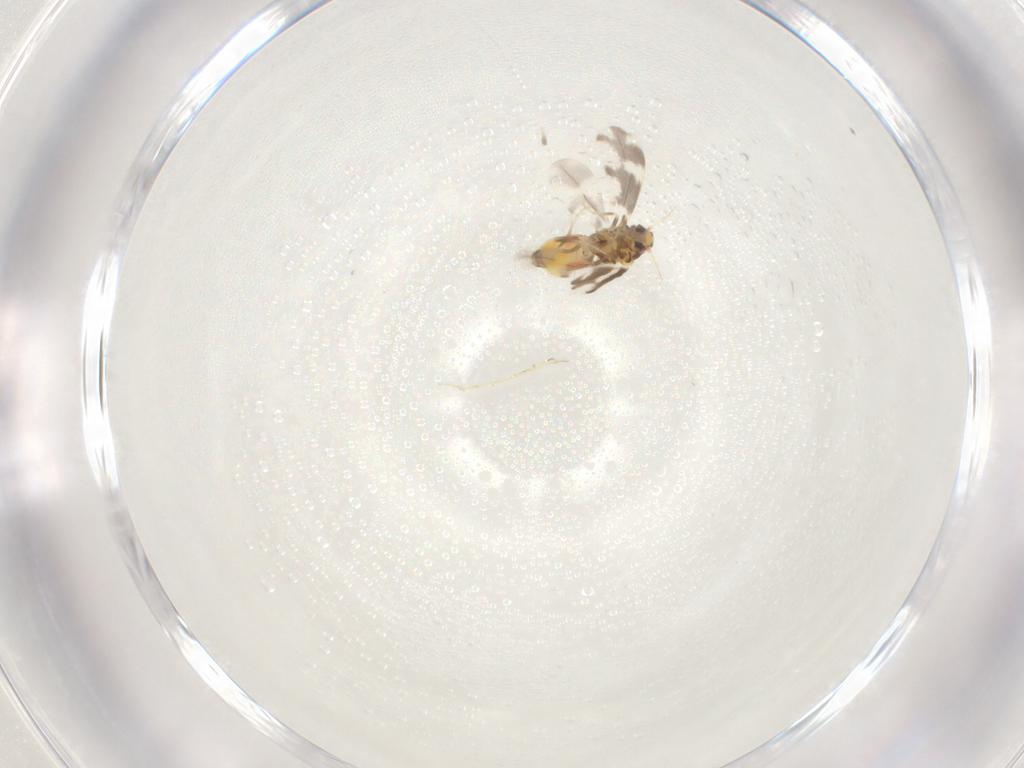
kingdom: Animalia
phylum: Arthropoda
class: Insecta
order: Hemiptera
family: Aleyrodidae
